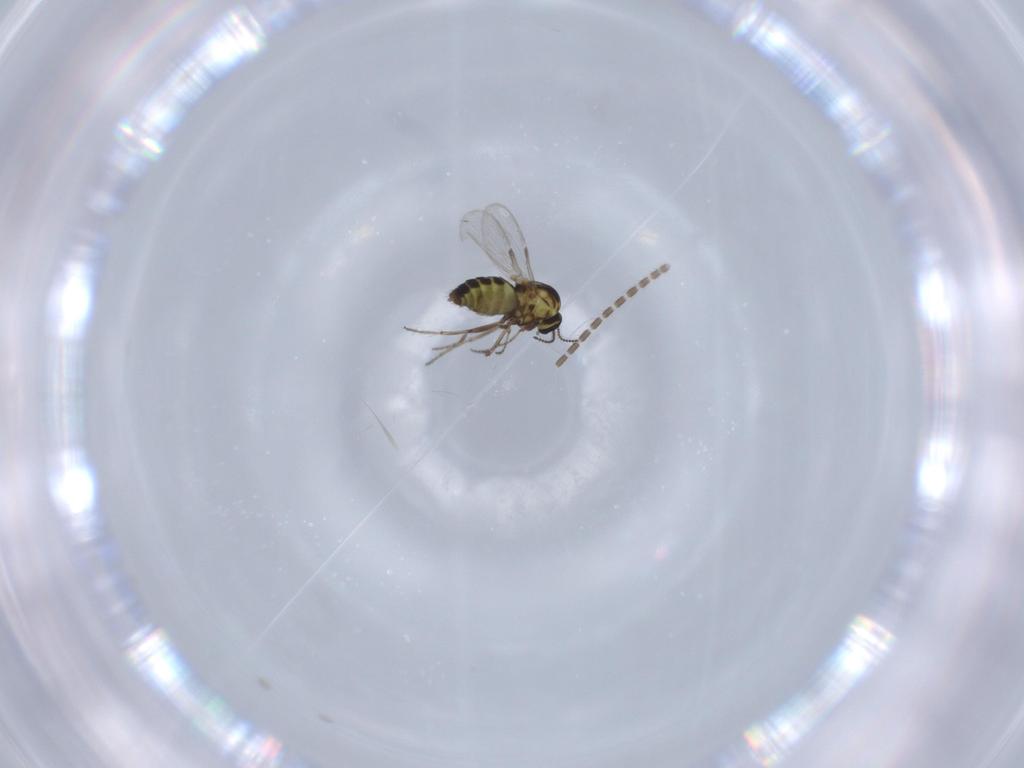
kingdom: Animalia
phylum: Arthropoda
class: Insecta
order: Diptera
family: Ceratopogonidae
